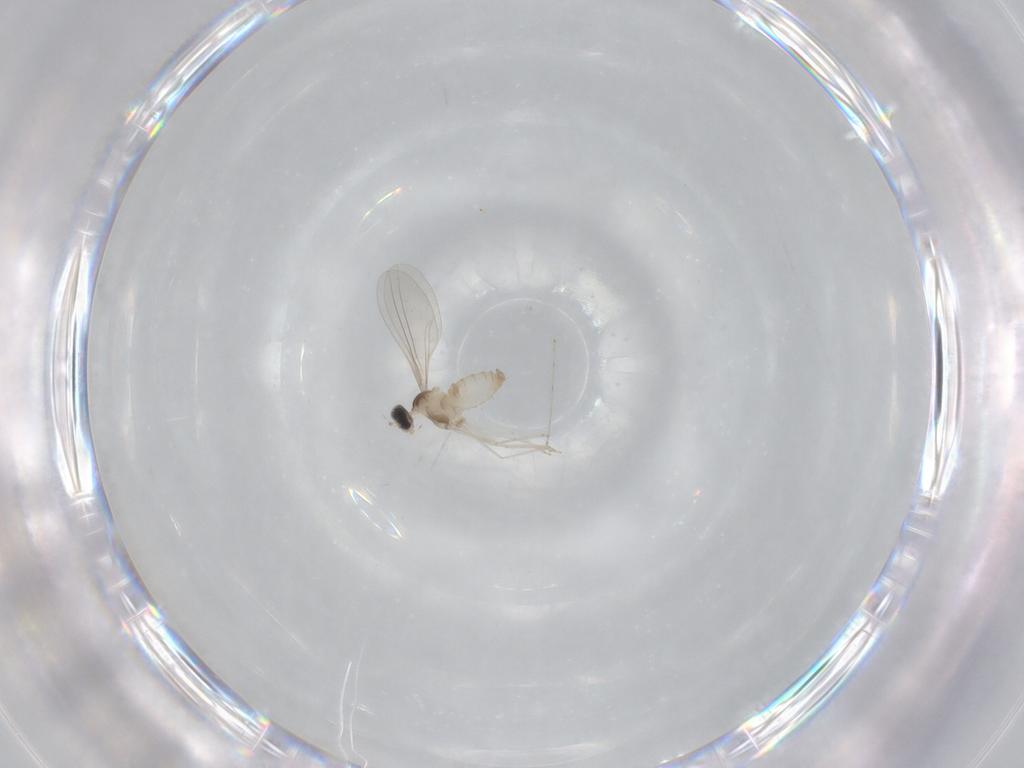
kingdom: Animalia
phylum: Arthropoda
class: Insecta
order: Diptera
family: Cecidomyiidae
